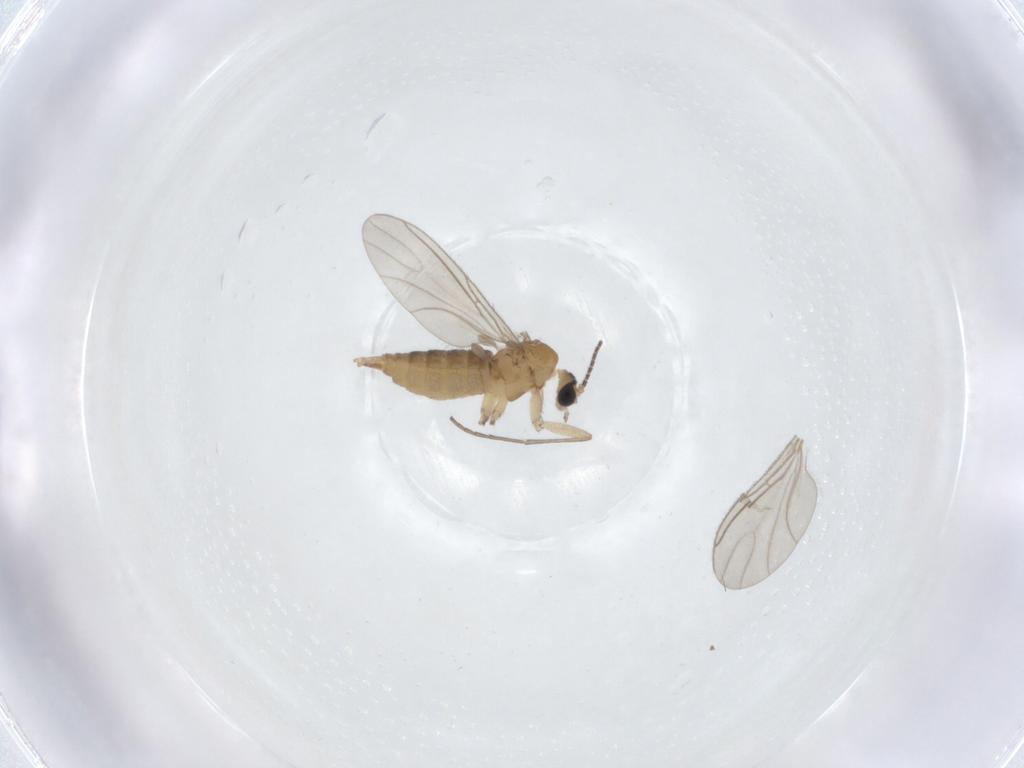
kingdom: Animalia
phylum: Arthropoda
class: Insecta
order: Diptera
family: Sciaridae
